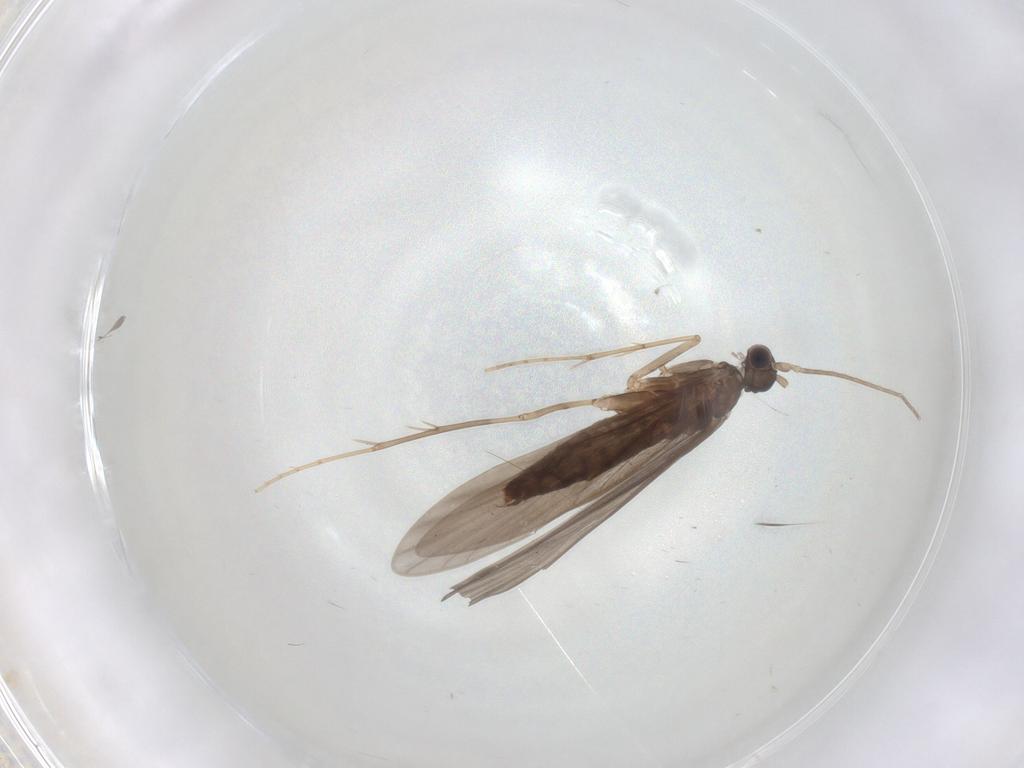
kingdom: Animalia
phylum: Arthropoda
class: Insecta
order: Trichoptera
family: Xiphocentronidae
